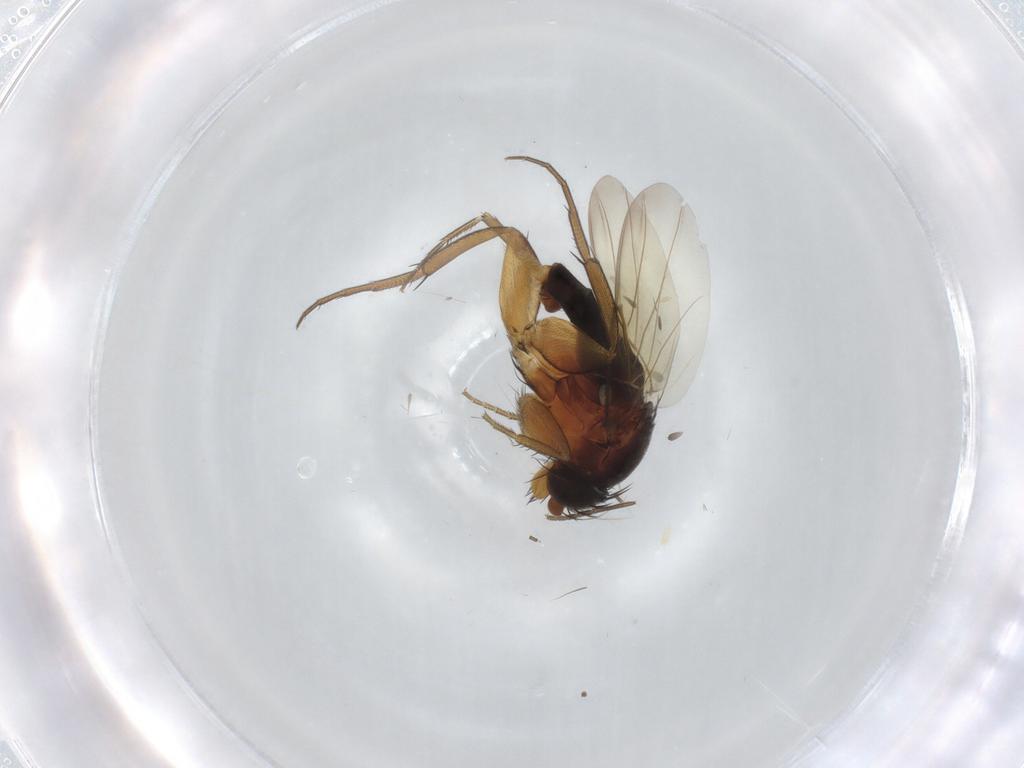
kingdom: Animalia
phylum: Arthropoda
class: Insecta
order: Diptera
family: Phoridae
